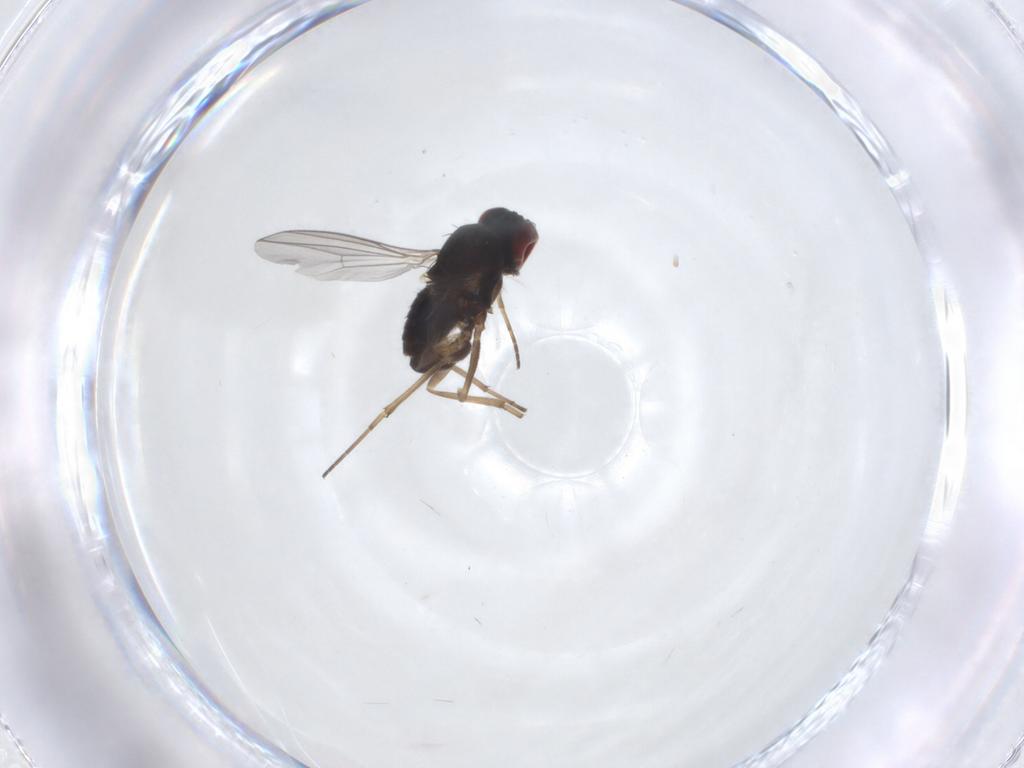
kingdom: Animalia
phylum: Arthropoda
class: Insecta
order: Diptera
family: Dolichopodidae
